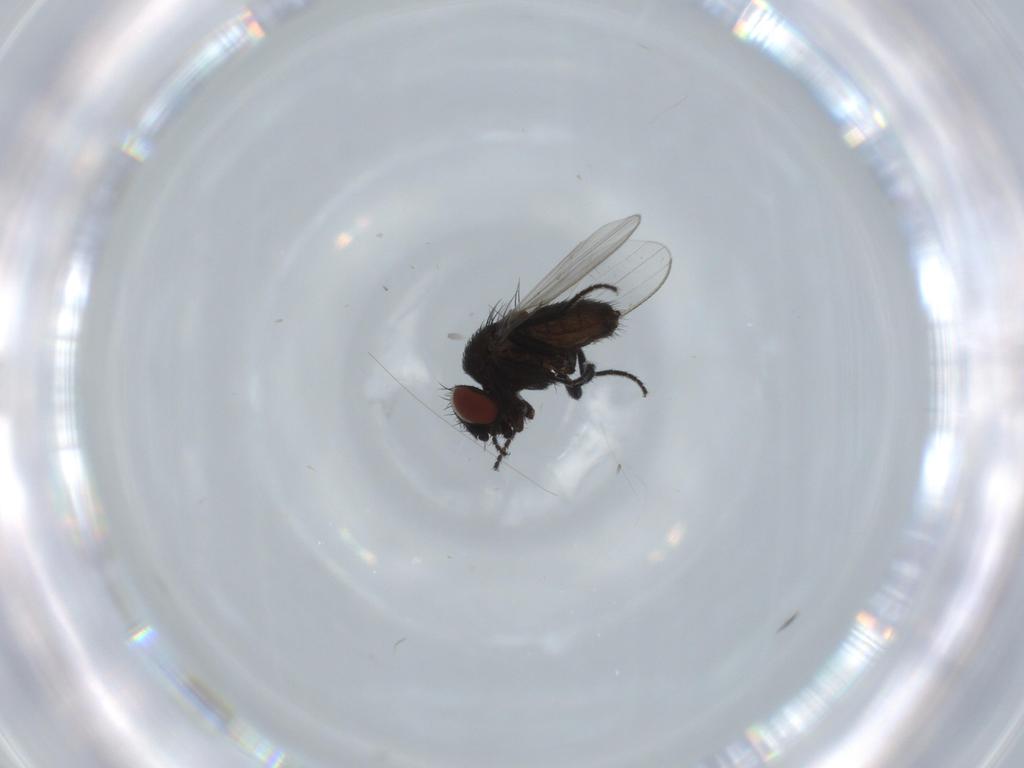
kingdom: Animalia
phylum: Arthropoda
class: Insecta
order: Diptera
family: Milichiidae
